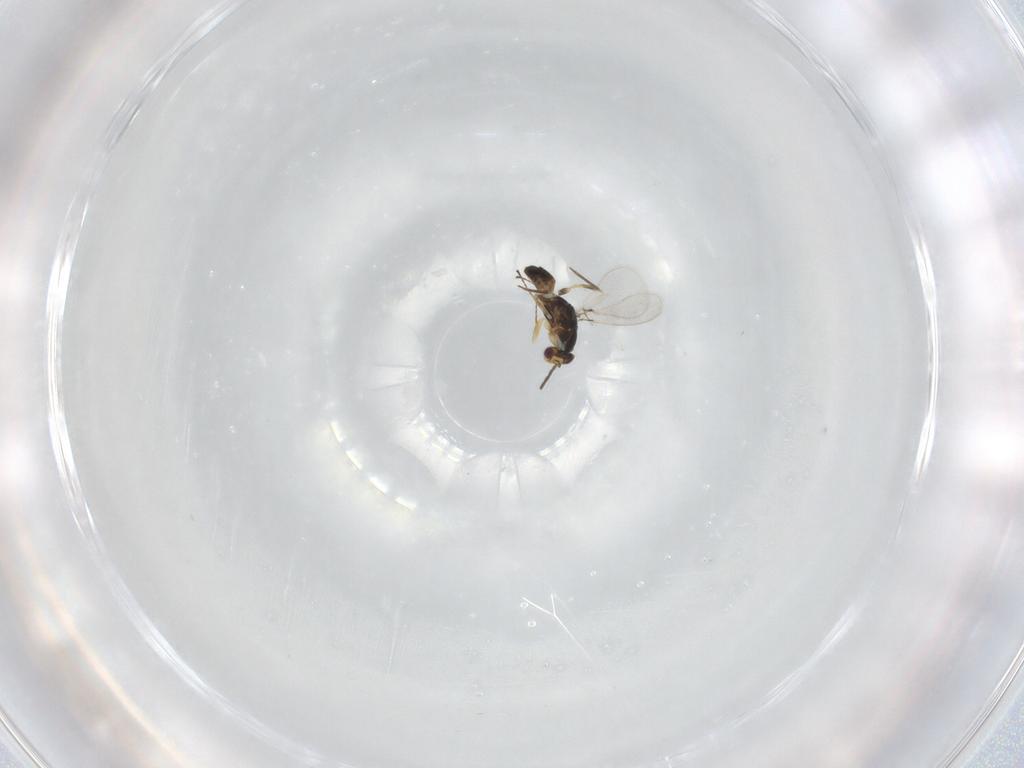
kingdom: Animalia
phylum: Arthropoda
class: Insecta
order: Hymenoptera
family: Mymaridae
